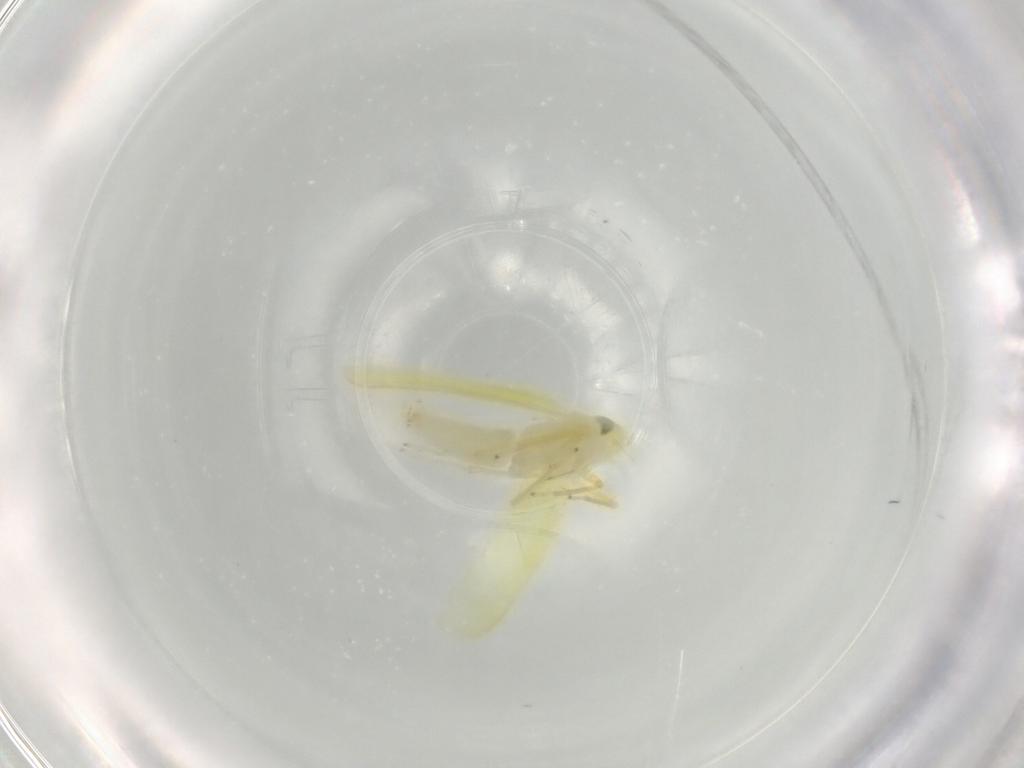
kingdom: Animalia
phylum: Arthropoda
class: Insecta
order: Hemiptera
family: Cicadellidae
